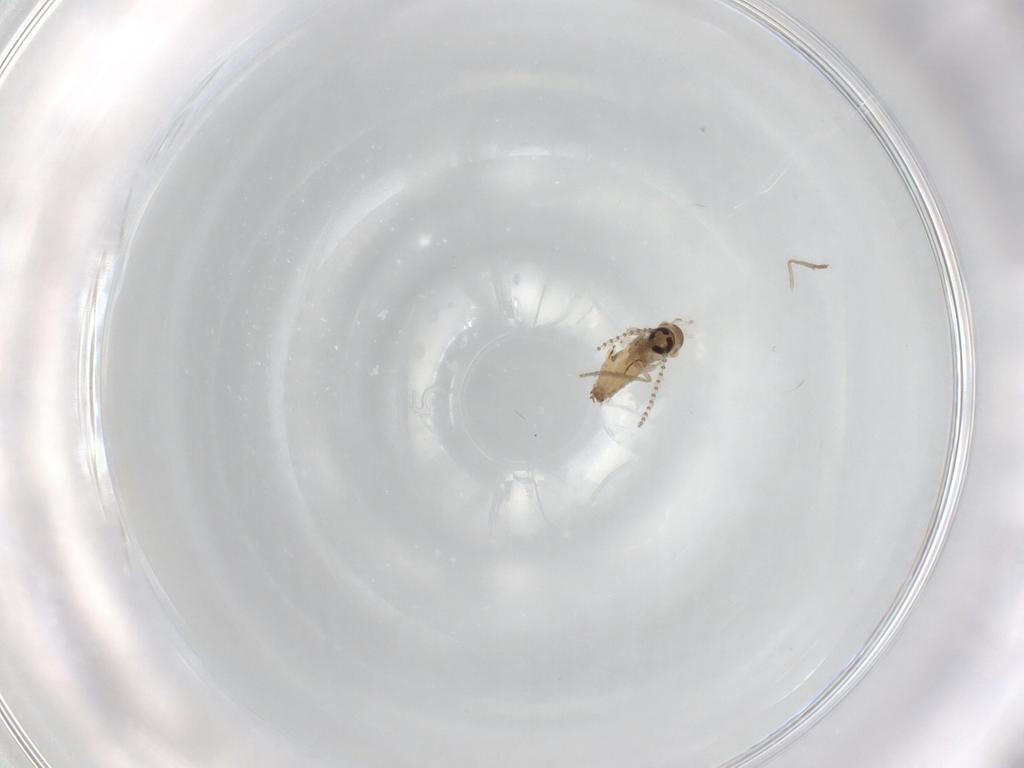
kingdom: Animalia
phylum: Arthropoda
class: Insecta
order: Diptera
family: Psychodidae
